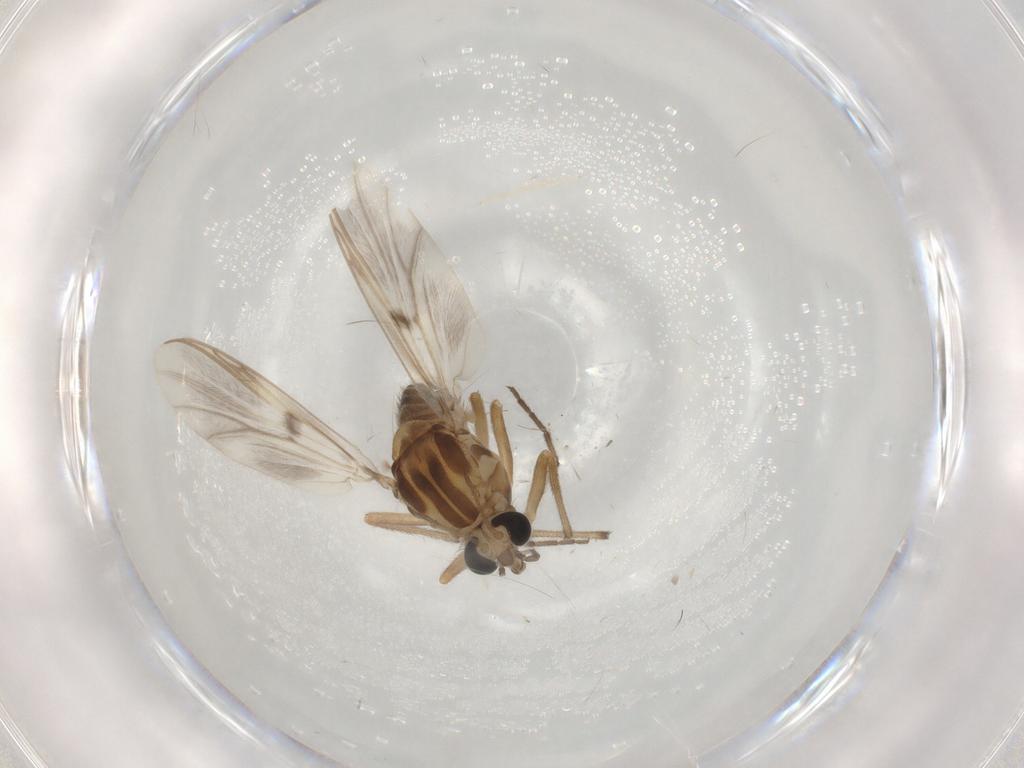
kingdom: Animalia
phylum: Arthropoda
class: Insecta
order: Diptera
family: Chironomidae
